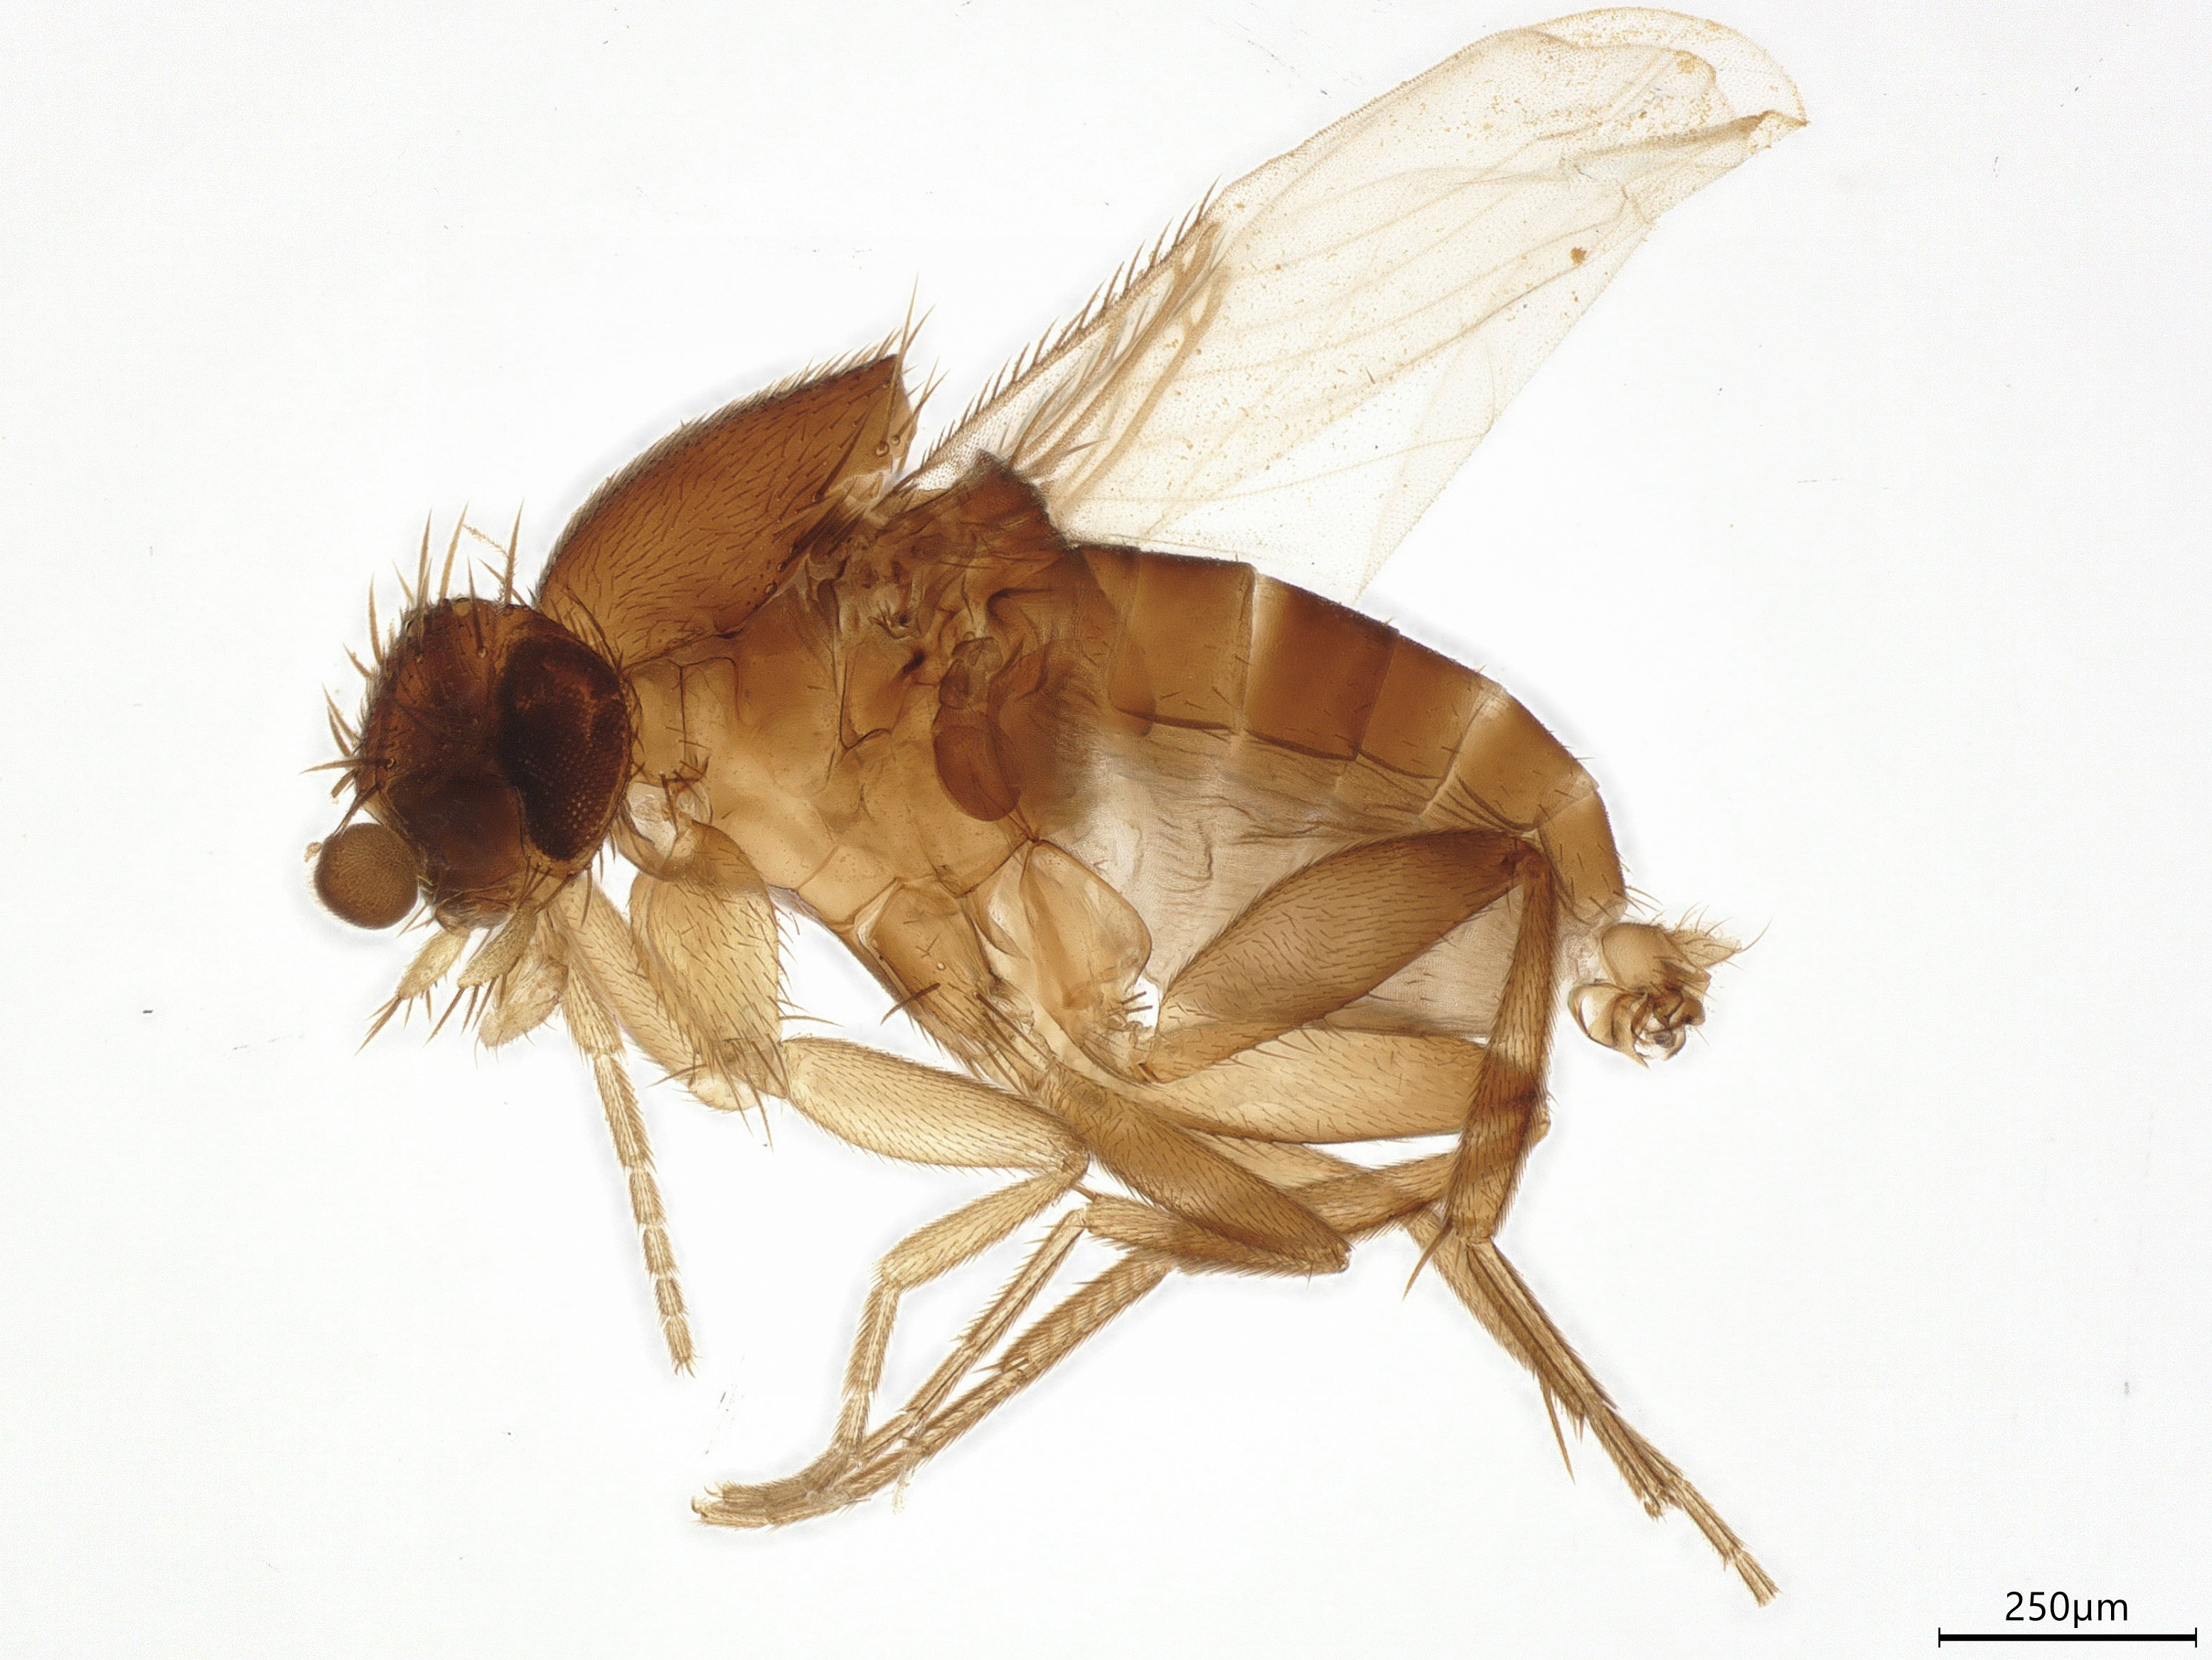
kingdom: Animalia
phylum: Arthropoda
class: Insecta
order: Diptera
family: Phoridae
